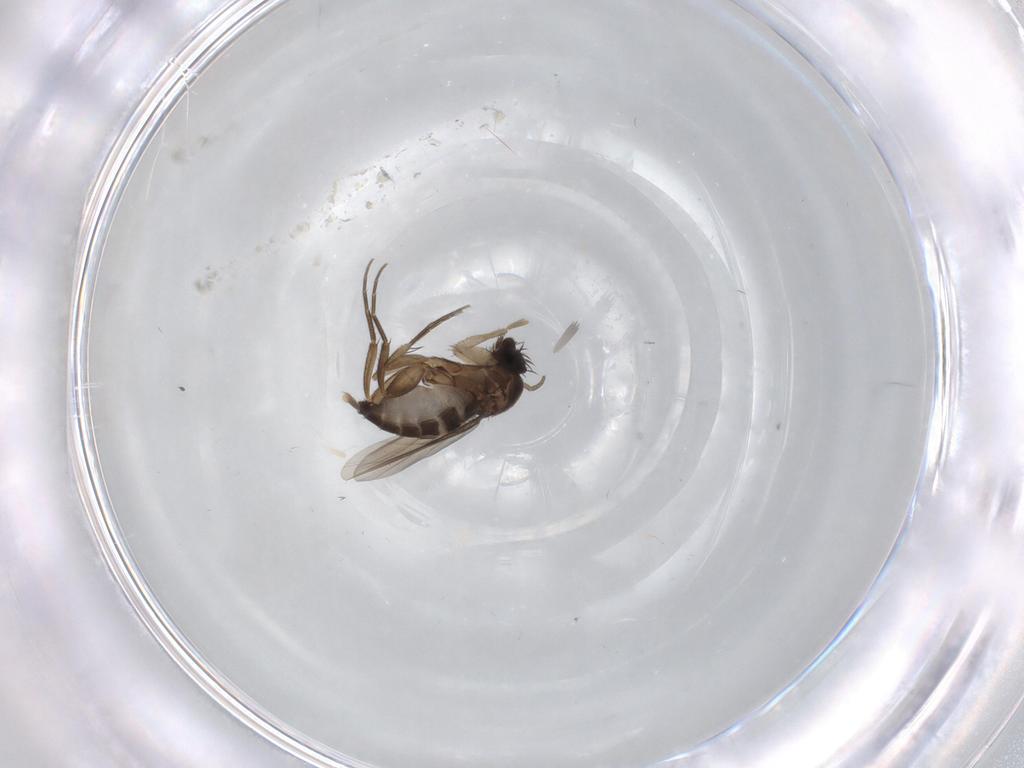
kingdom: Animalia
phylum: Arthropoda
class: Insecta
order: Diptera
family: Phoridae
